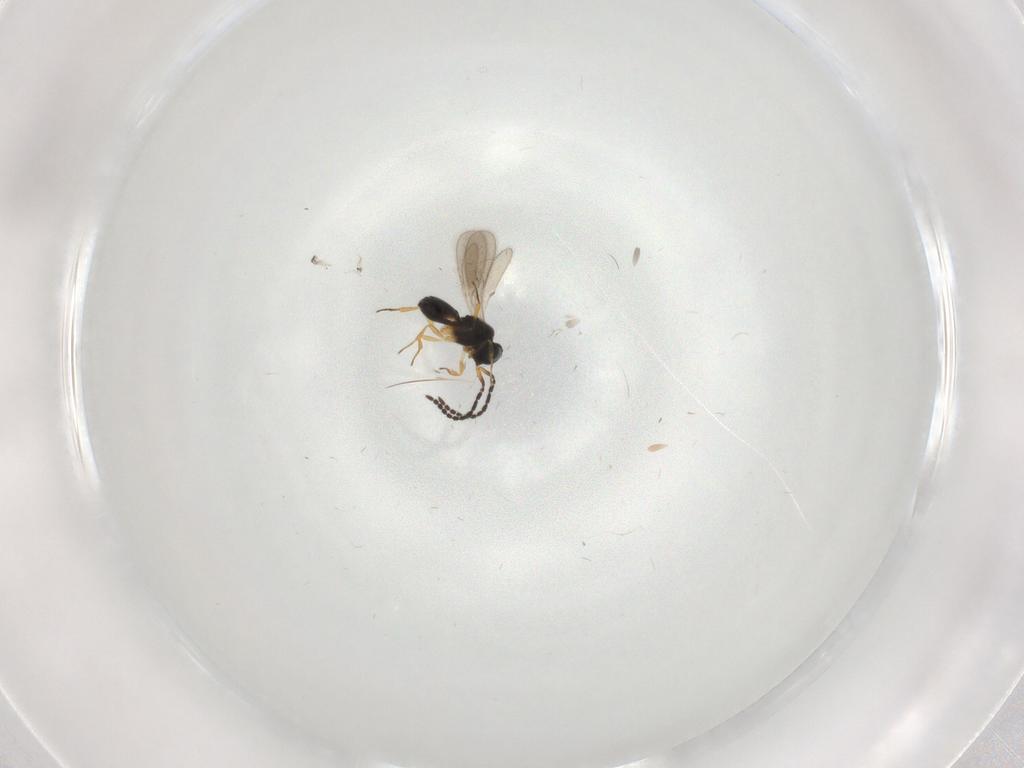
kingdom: Animalia
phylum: Arthropoda
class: Insecta
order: Hymenoptera
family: Scelionidae
